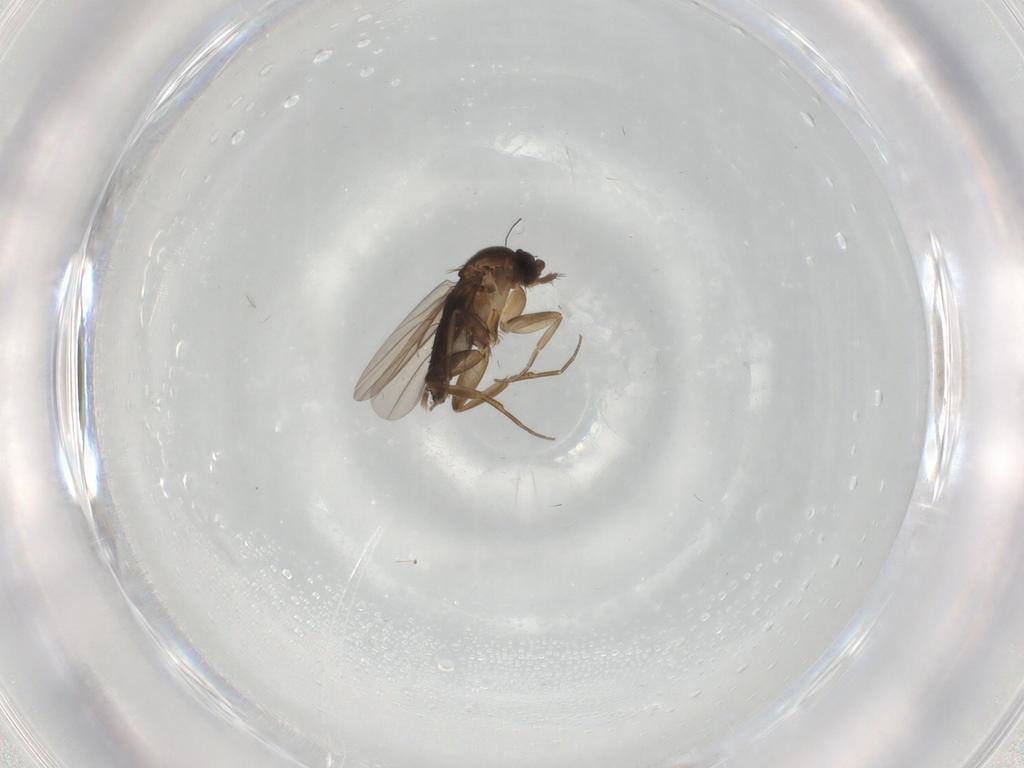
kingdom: Animalia
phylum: Arthropoda
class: Insecta
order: Diptera
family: Phoridae
